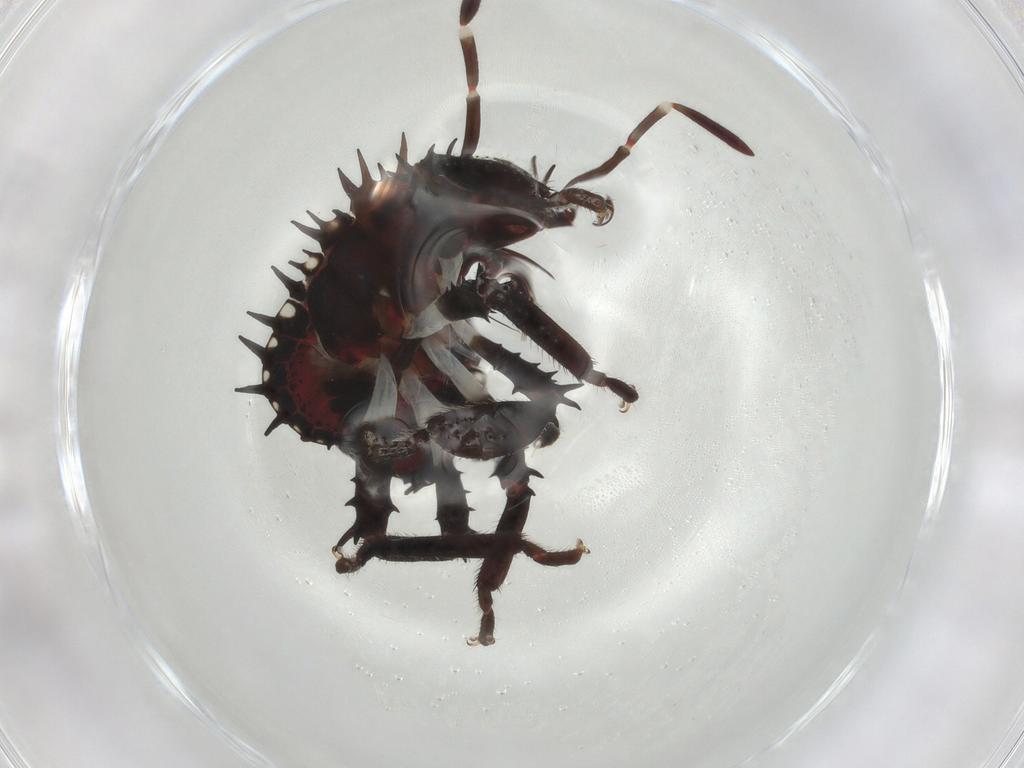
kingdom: Animalia
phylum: Arthropoda
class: Insecta
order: Hemiptera
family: Pentatomidae
